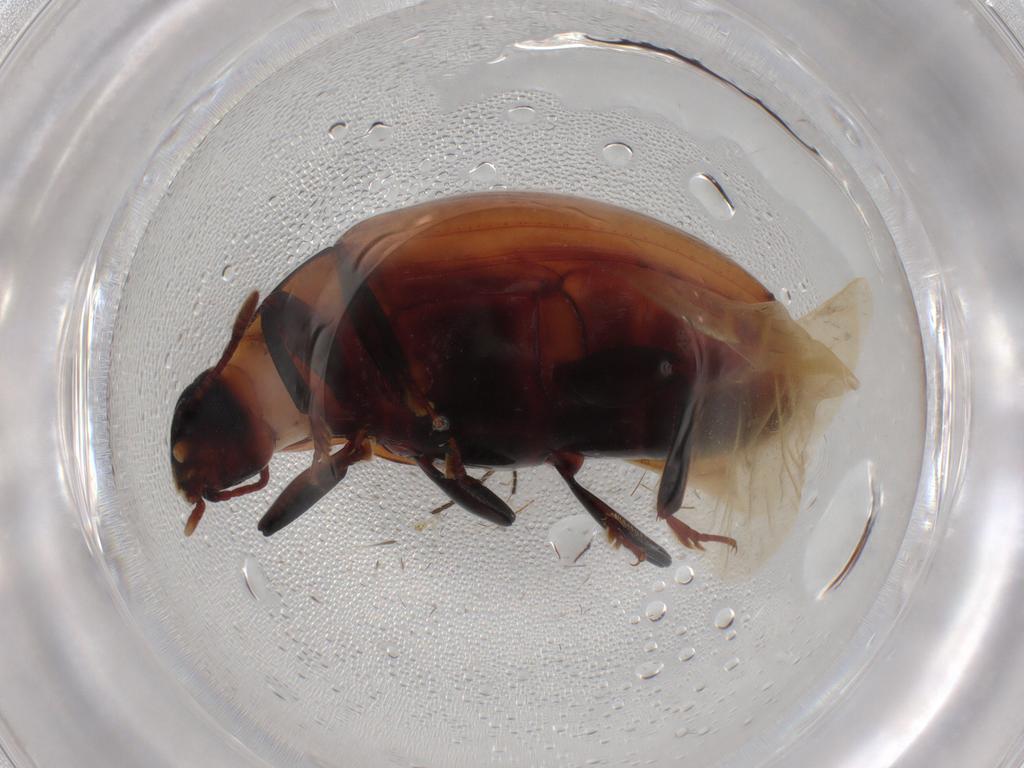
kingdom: Animalia
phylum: Arthropoda
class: Insecta
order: Coleoptera
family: Zopheridae
